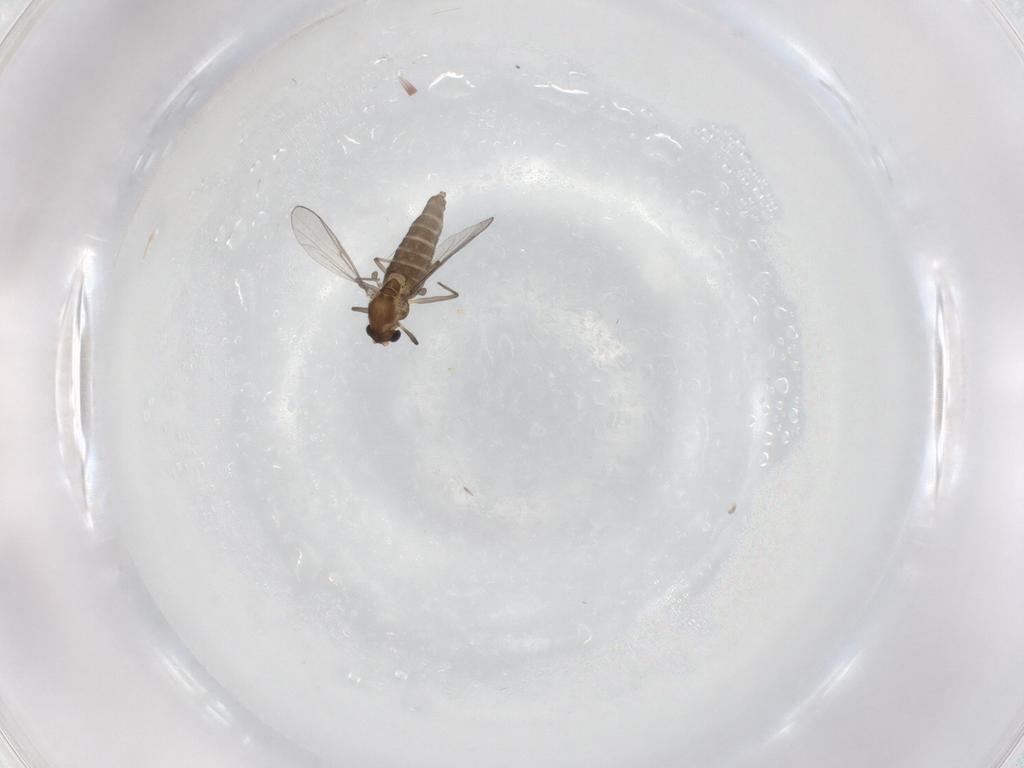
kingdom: Animalia
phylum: Arthropoda
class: Insecta
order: Diptera
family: Chironomidae
